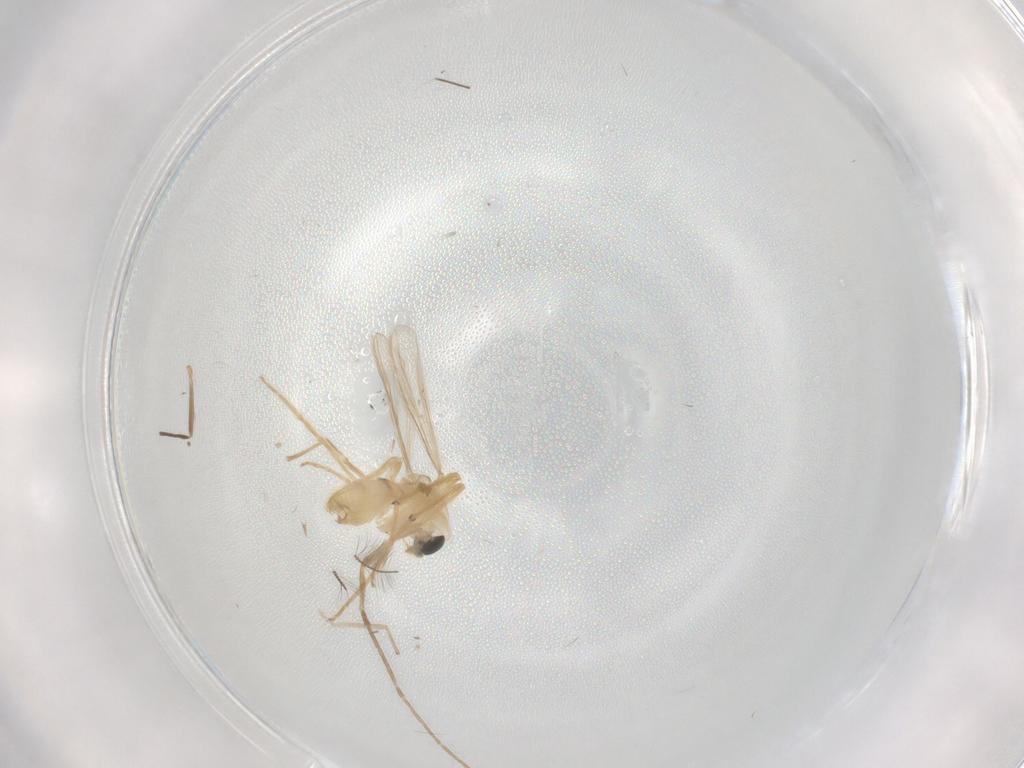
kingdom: Animalia
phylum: Arthropoda
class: Insecta
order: Diptera
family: Chironomidae
